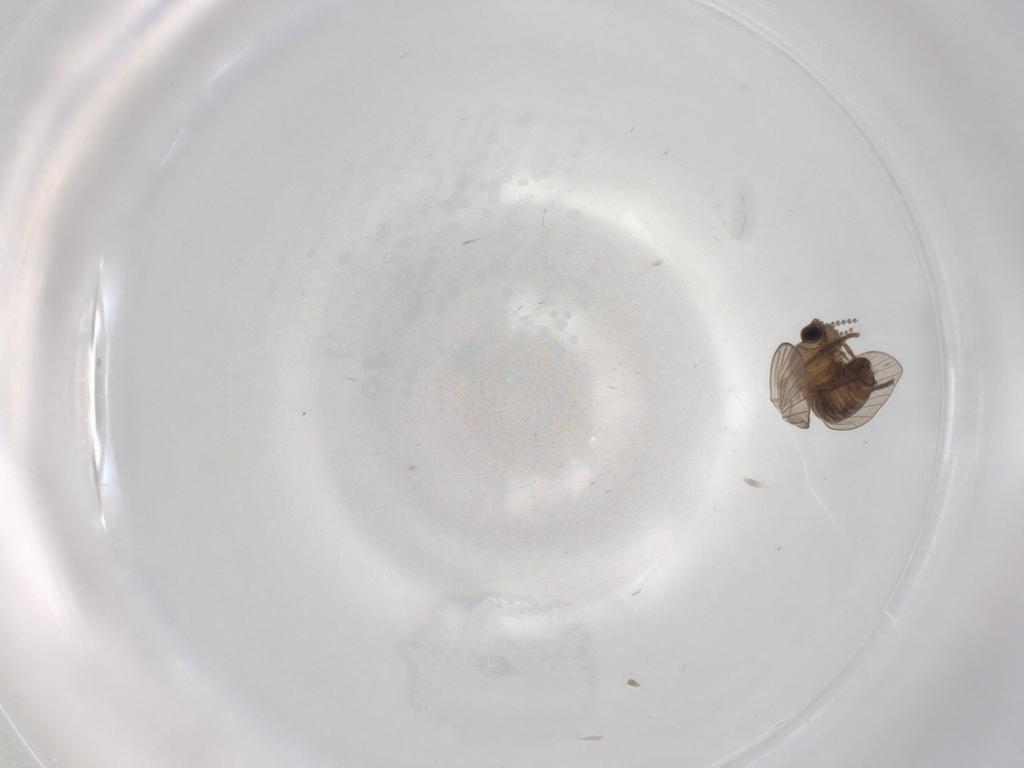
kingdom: Animalia
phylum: Arthropoda
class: Insecta
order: Diptera
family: Psychodidae
